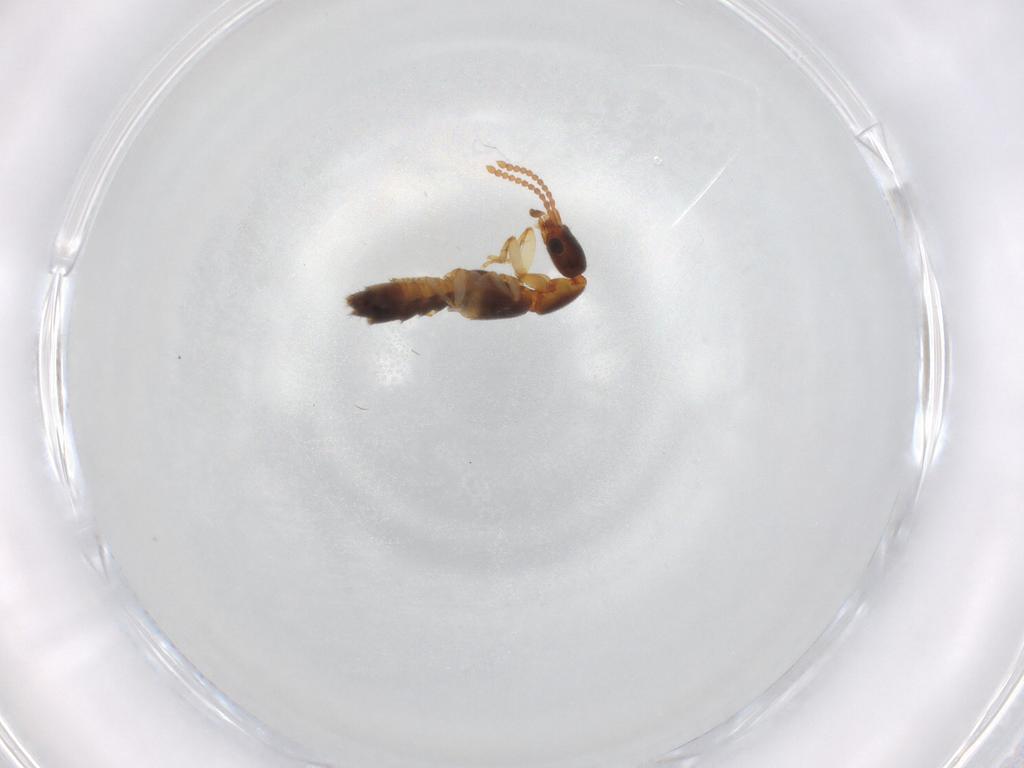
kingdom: Animalia
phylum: Arthropoda
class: Insecta
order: Coleoptera
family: Staphylinidae
